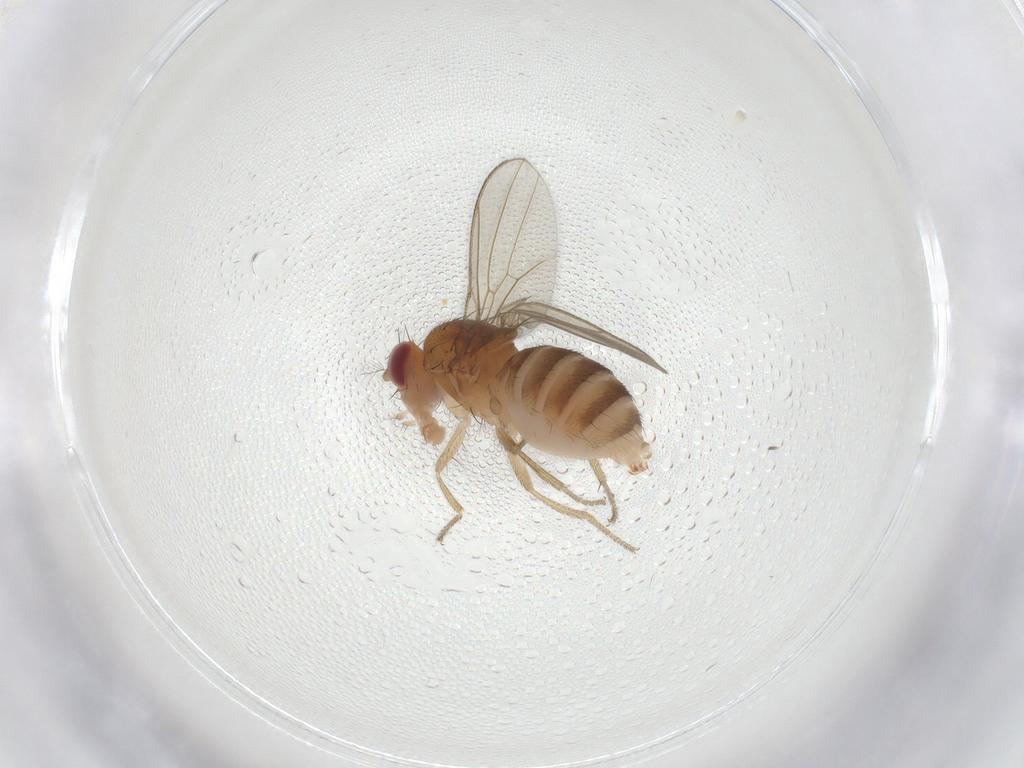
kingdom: Animalia
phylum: Arthropoda
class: Insecta
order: Diptera
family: Drosophilidae
